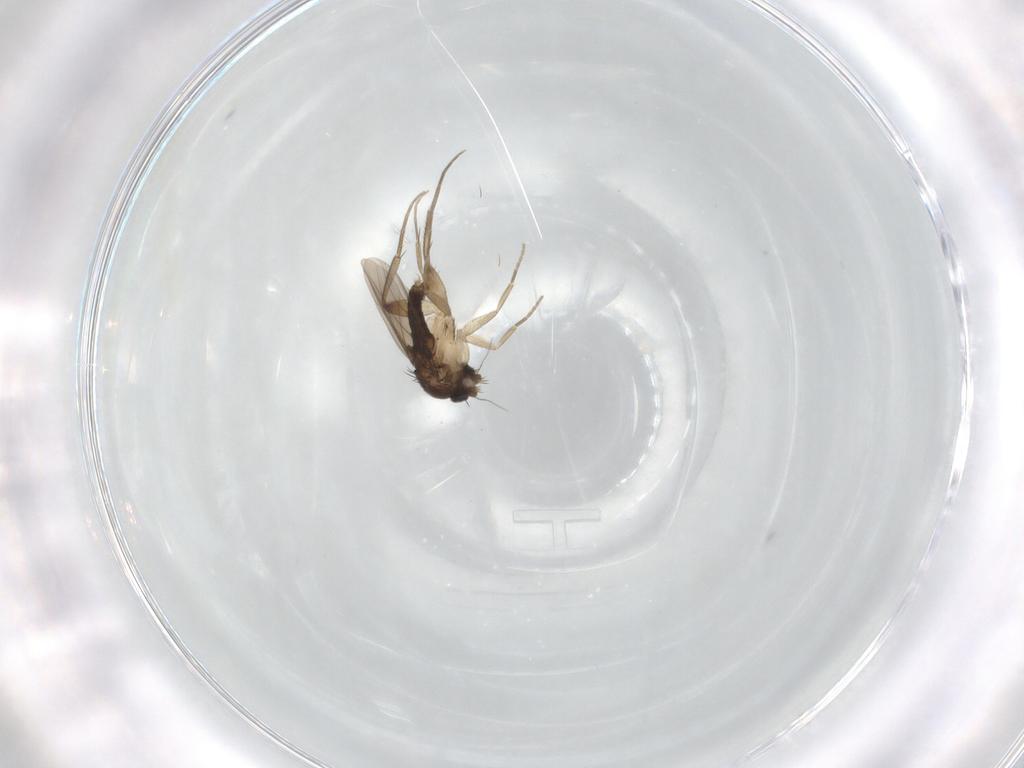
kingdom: Animalia
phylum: Arthropoda
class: Insecta
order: Diptera
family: Phoridae
